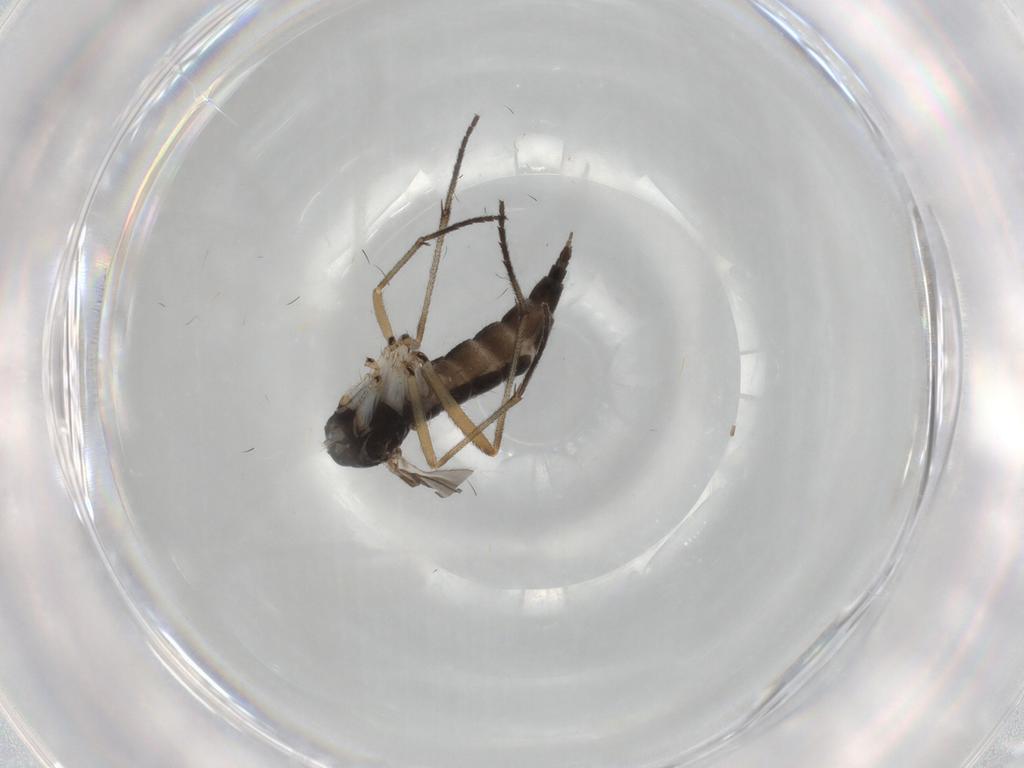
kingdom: Animalia
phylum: Arthropoda
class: Insecta
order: Diptera
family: Sciaridae
